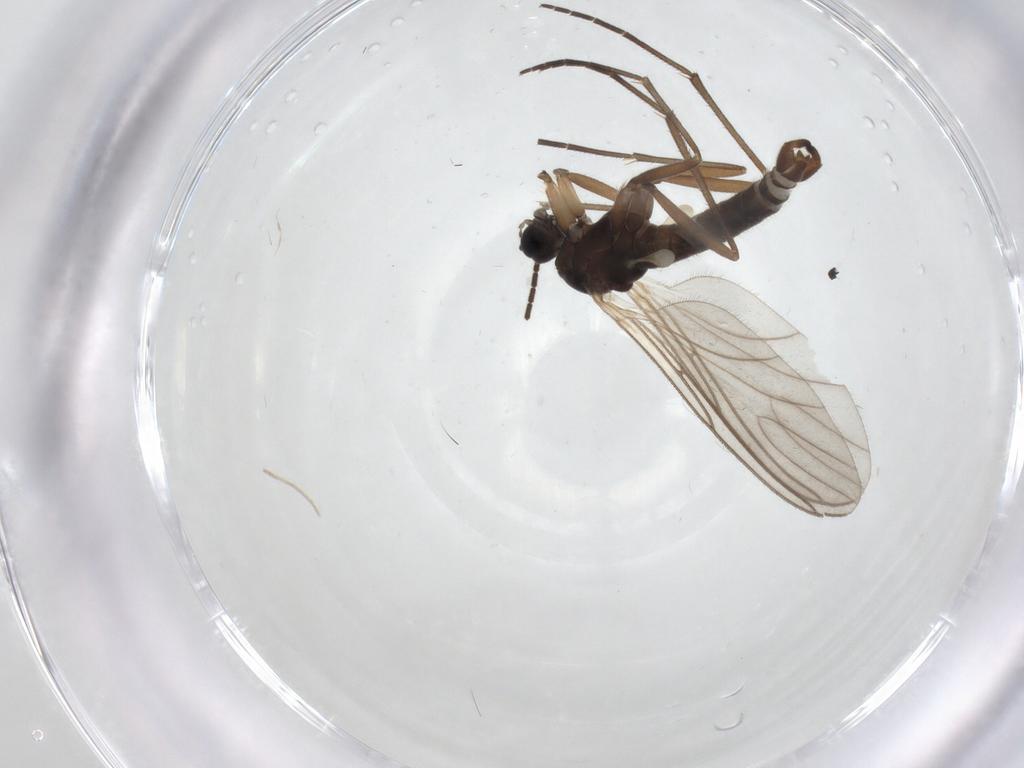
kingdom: Animalia
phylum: Arthropoda
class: Insecta
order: Diptera
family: Sciaridae
